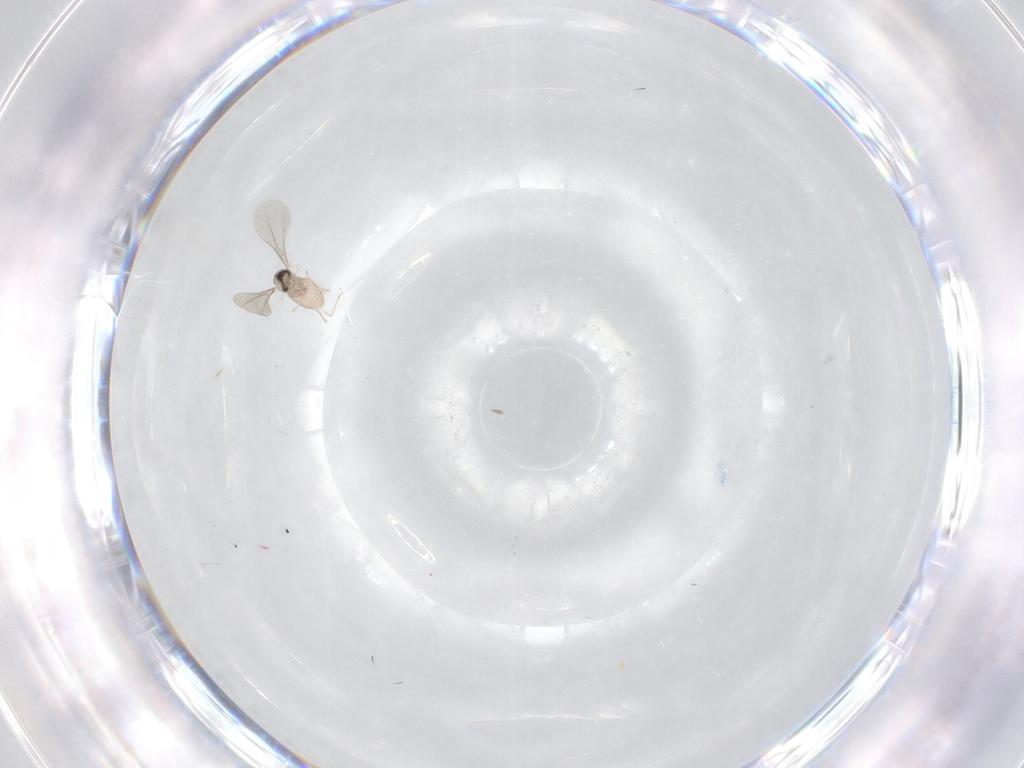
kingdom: Animalia
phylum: Arthropoda
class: Insecta
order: Diptera
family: Cecidomyiidae
